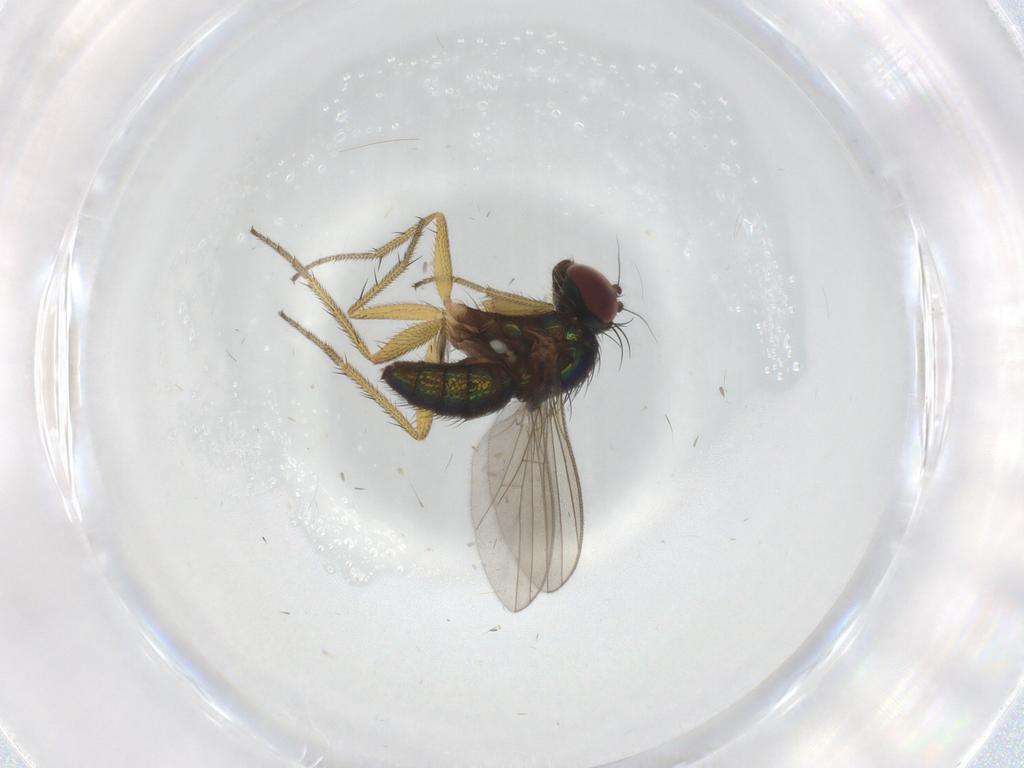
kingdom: Animalia
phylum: Arthropoda
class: Insecta
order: Diptera
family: Ceratopogonidae
